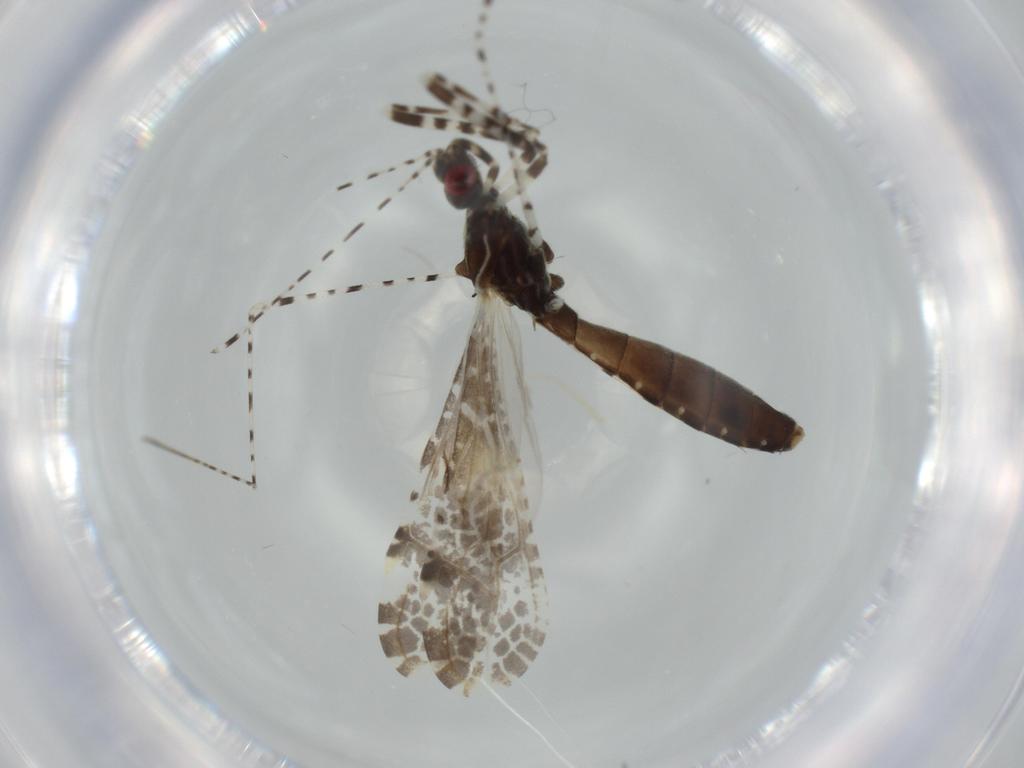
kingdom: Animalia
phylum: Arthropoda
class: Insecta
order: Hemiptera
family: Reduviidae
